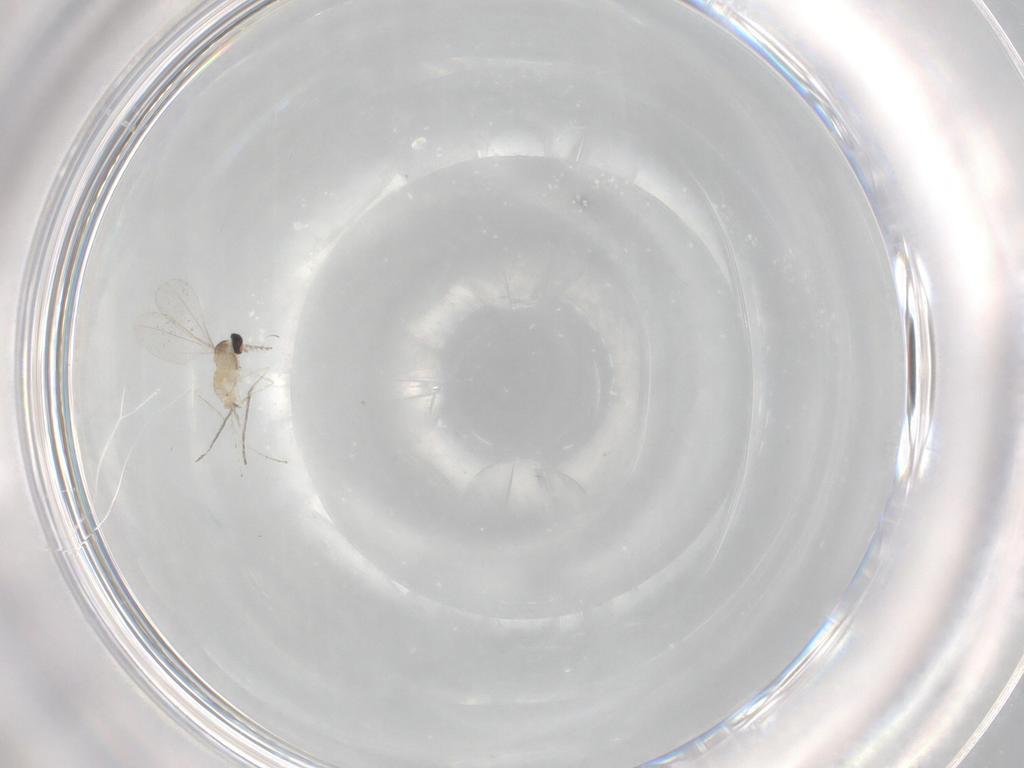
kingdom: Animalia
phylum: Arthropoda
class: Insecta
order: Diptera
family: Cecidomyiidae
